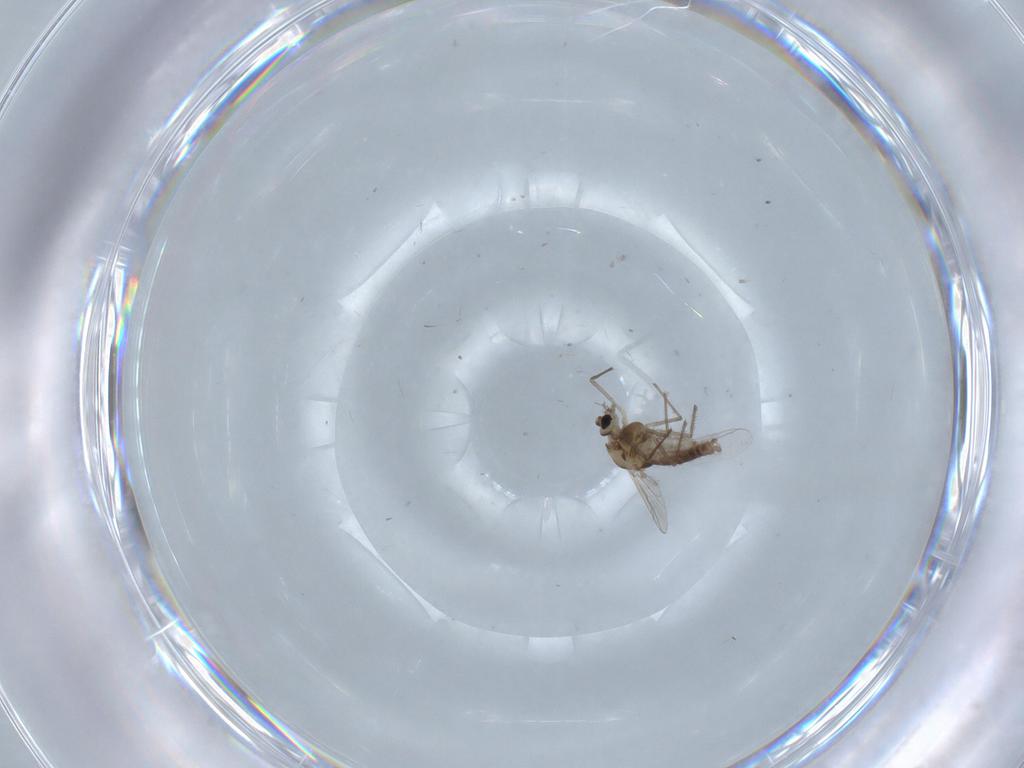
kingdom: Animalia
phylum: Arthropoda
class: Insecta
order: Diptera
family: Chironomidae
